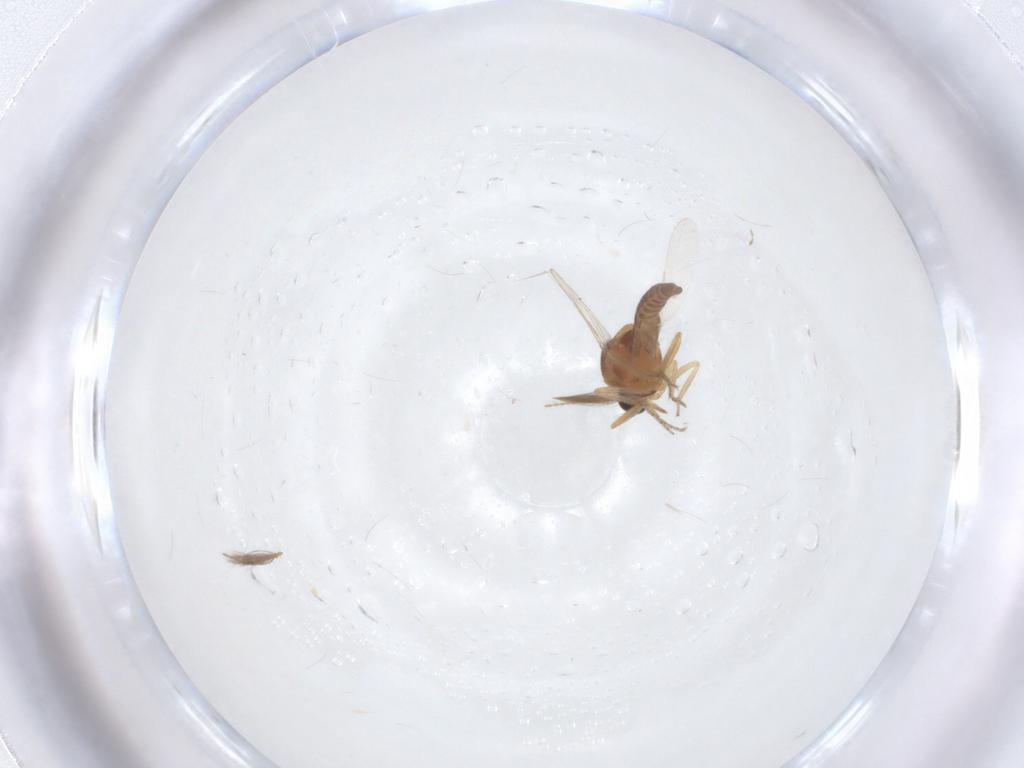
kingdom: Animalia
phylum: Arthropoda
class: Insecta
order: Diptera
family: Ceratopogonidae
